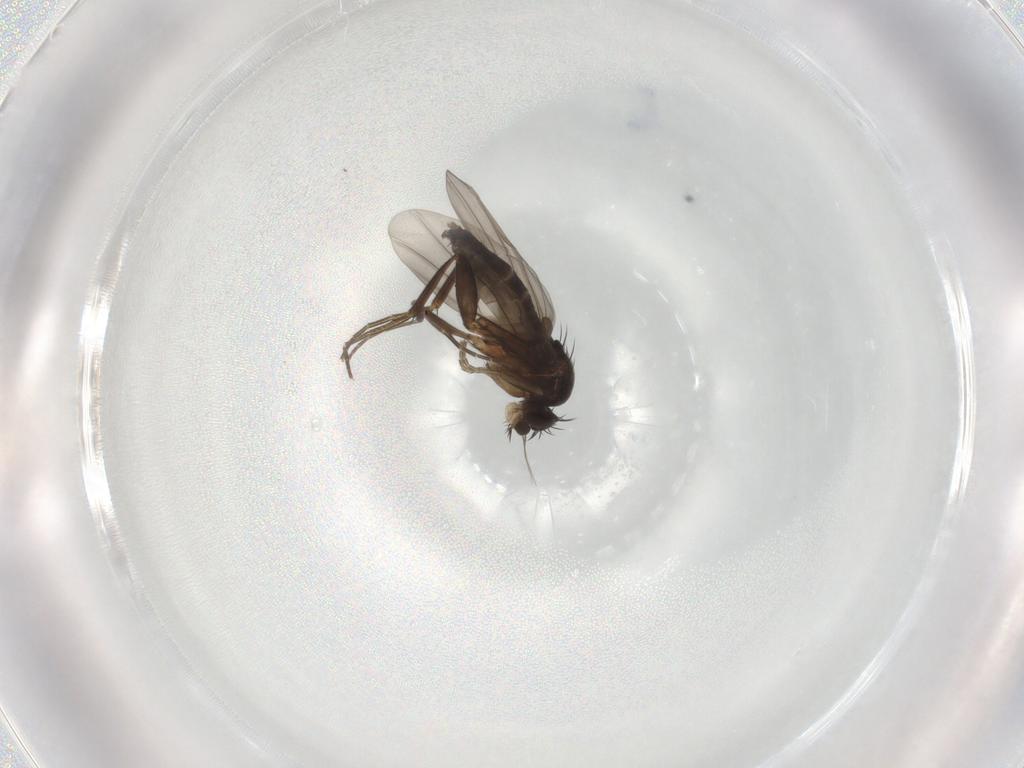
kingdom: Animalia
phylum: Arthropoda
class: Insecta
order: Diptera
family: Phoridae
